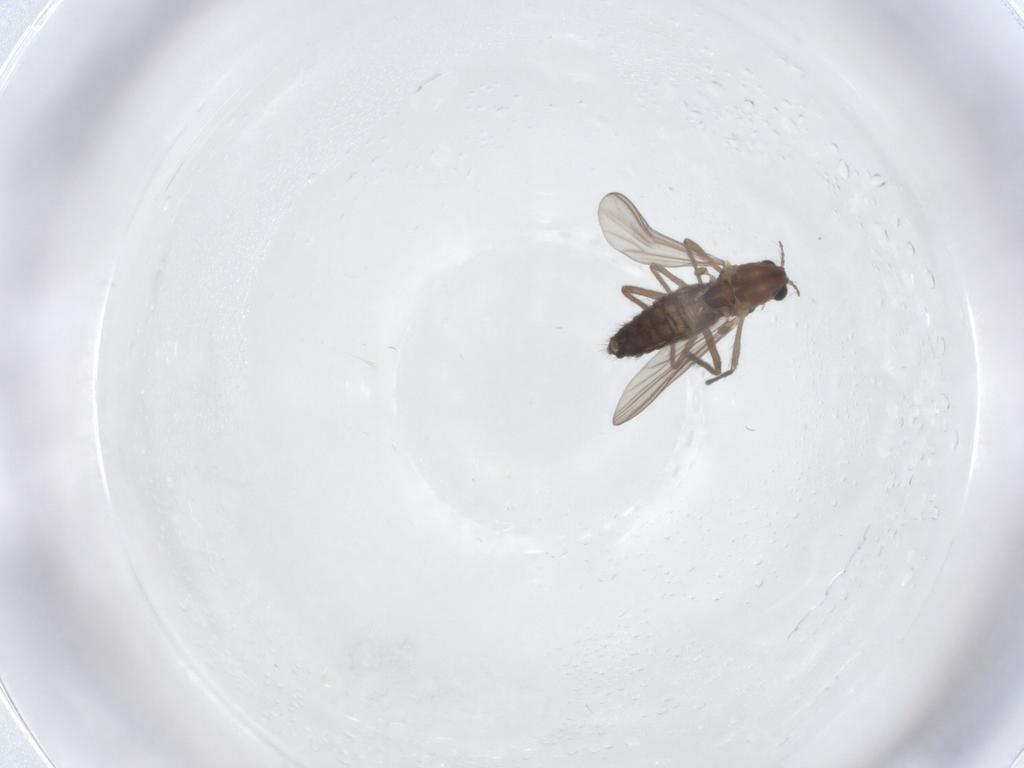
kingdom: Animalia
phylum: Arthropoda
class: Insecta
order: Diptera
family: Chironomidae
